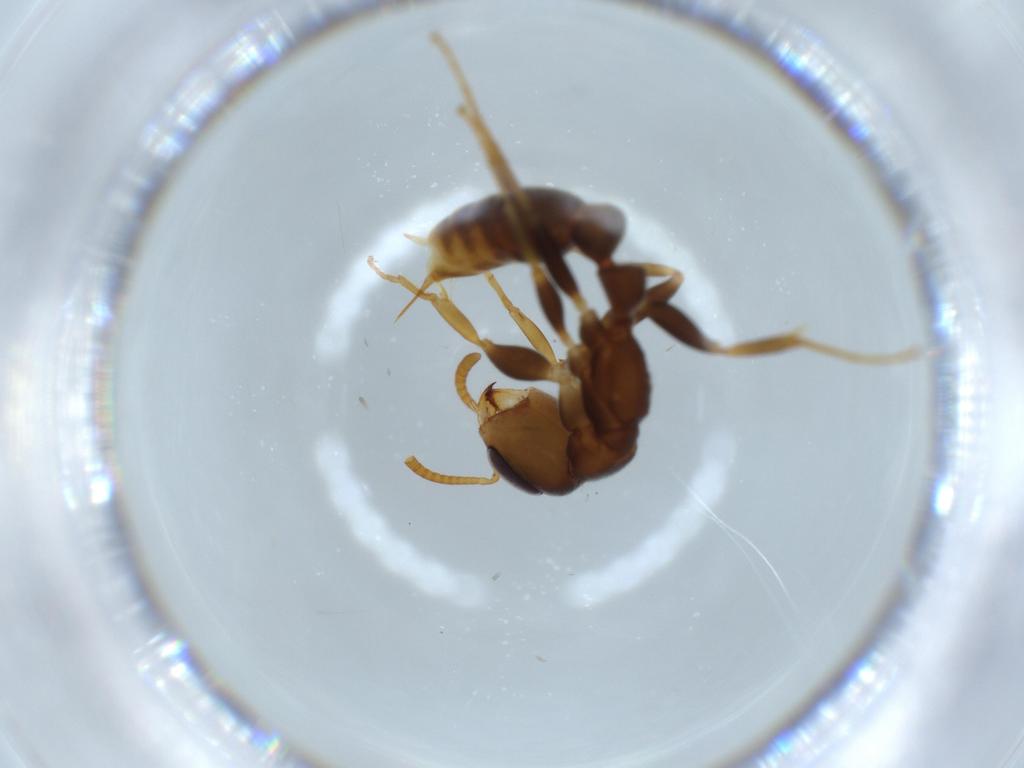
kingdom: Animalia
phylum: Arthropoda
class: Insecta
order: Hymenoptera
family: Formicidae
